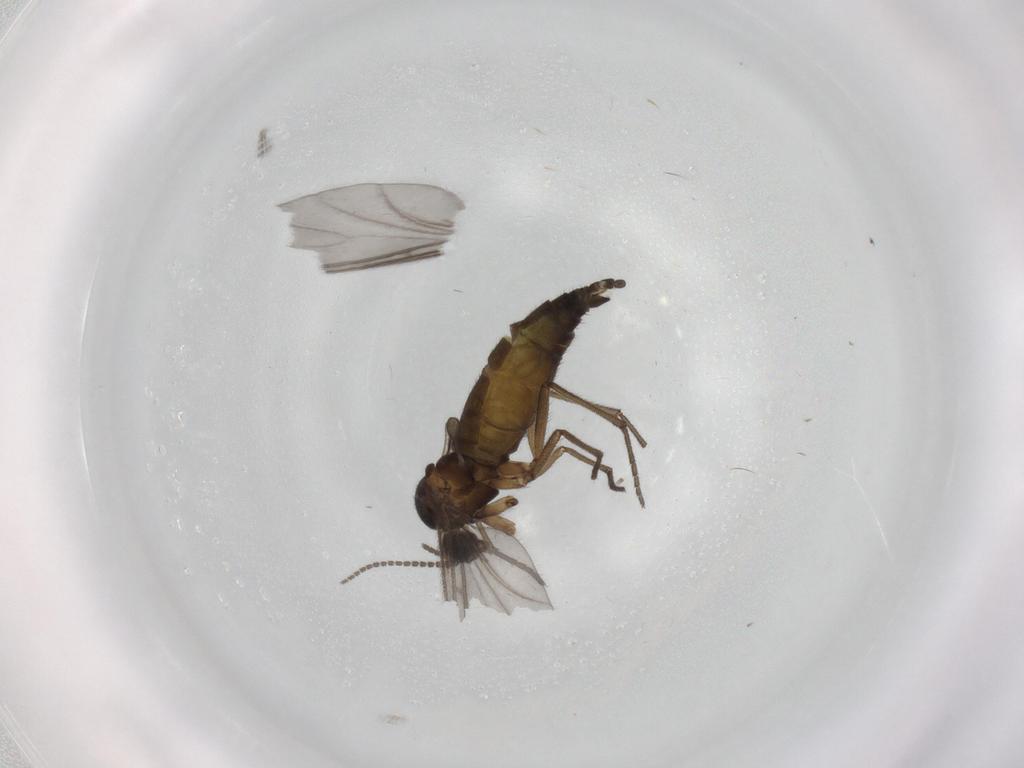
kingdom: Animalia
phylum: Arthropoda
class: Insecta
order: Diptera
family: Sciaridae
